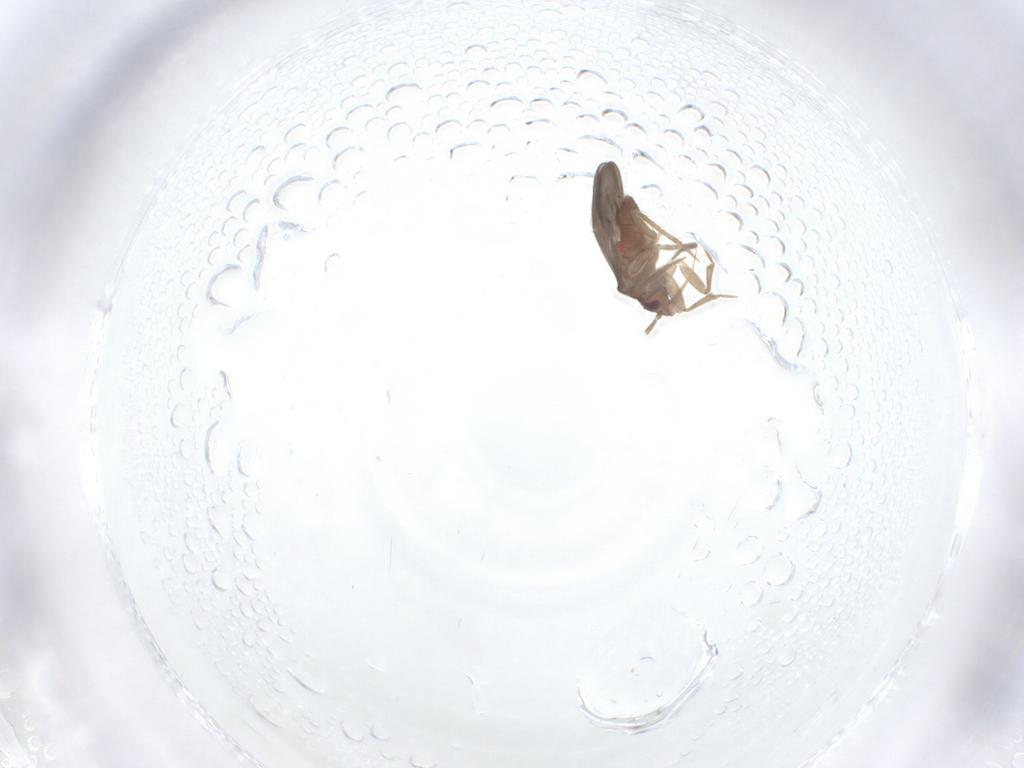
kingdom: Animalia
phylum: Arthropoda
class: Insecta
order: Hemiptera
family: Ceratocombidae
